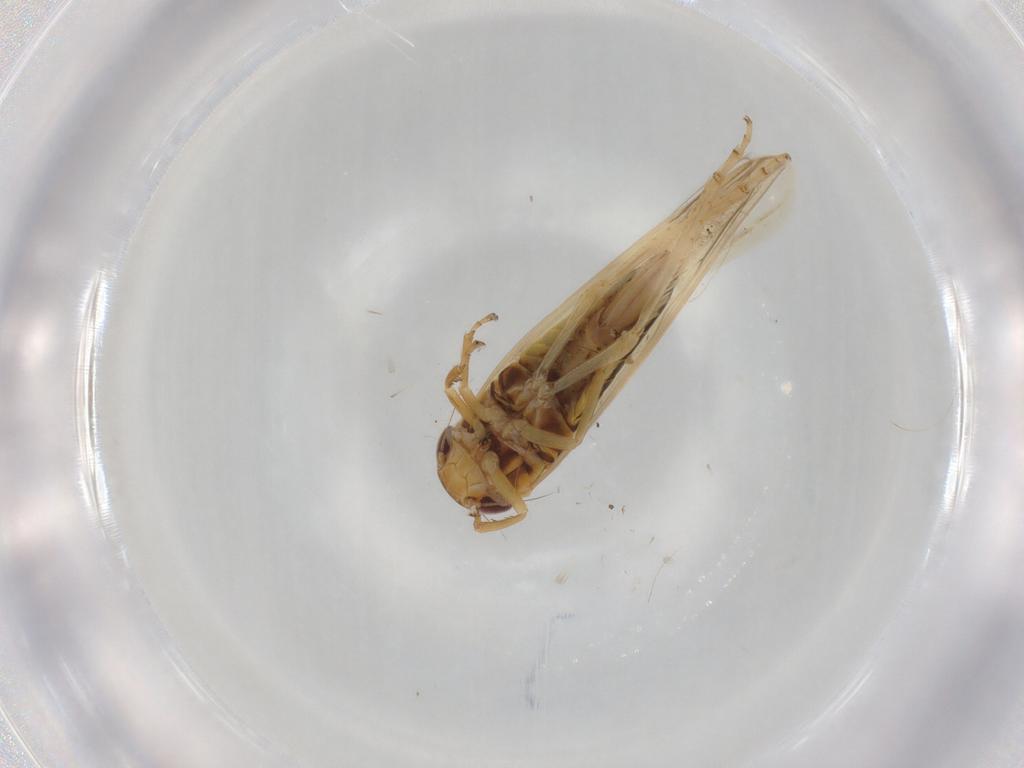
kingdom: Animalia
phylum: Arthropoda
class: Insecta
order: Hemiptera
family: Cicadellidae
